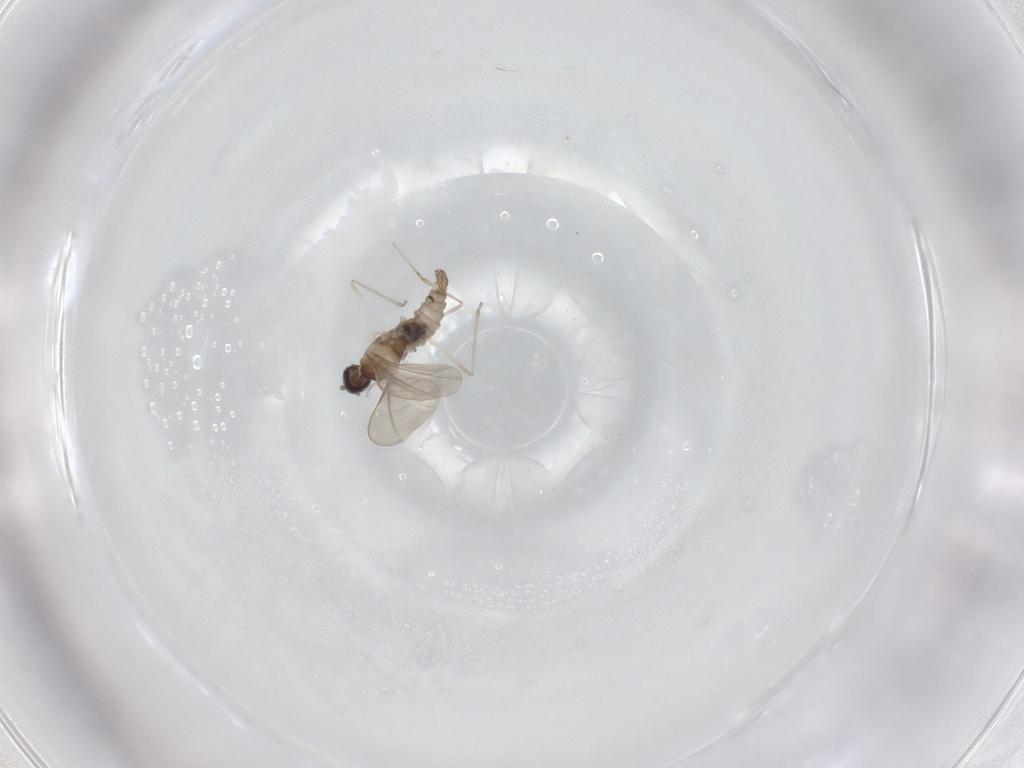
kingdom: Animalia
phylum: Arthropoda
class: Insecta
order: Diptera
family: Cecidomyiidae
